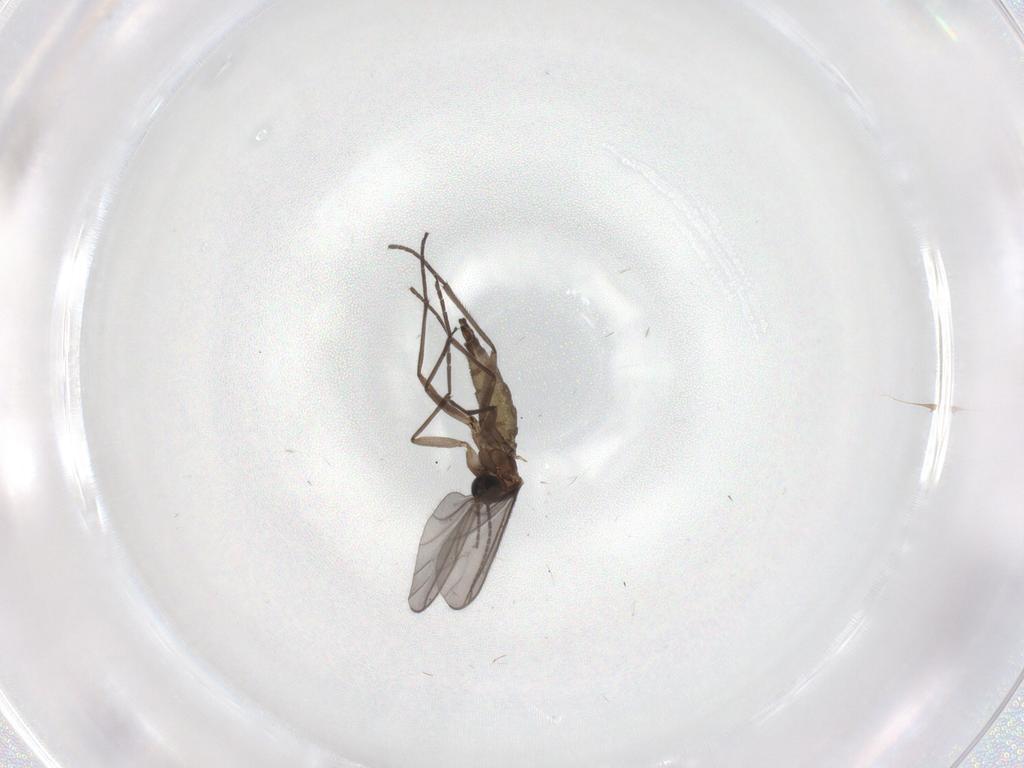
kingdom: Animalia
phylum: Arthropoda
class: Insecta
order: Diptera
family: Sciaridae
